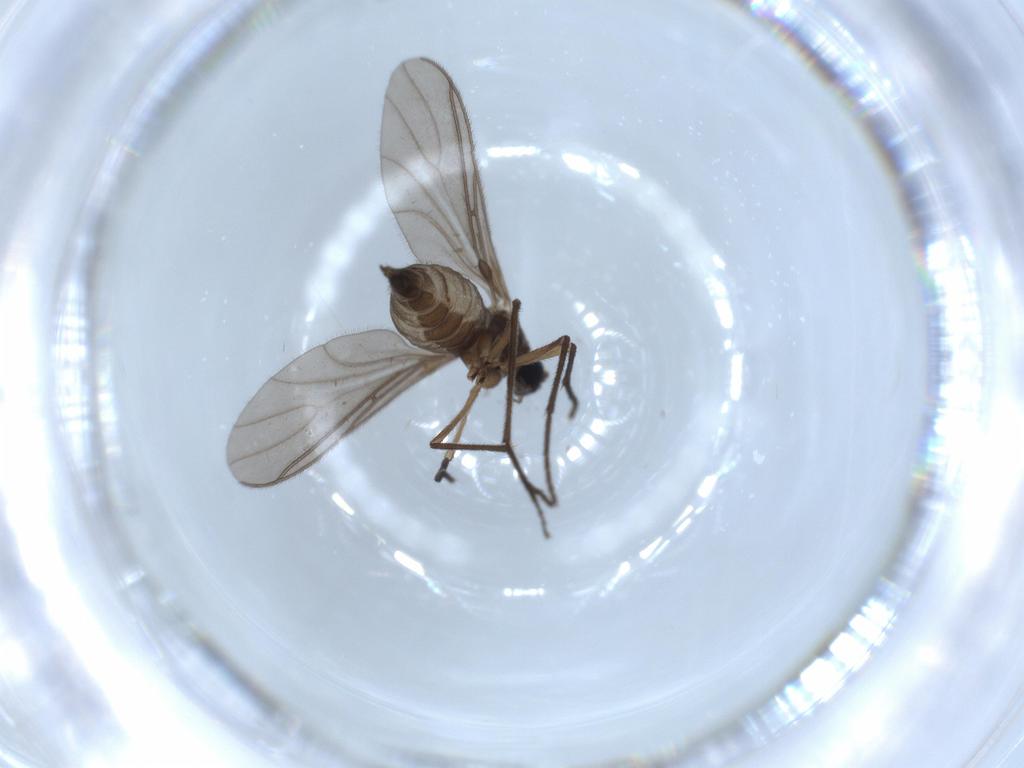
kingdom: Animalia
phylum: Arthropoda
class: Insecta
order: Diptera
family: Sciaridae
